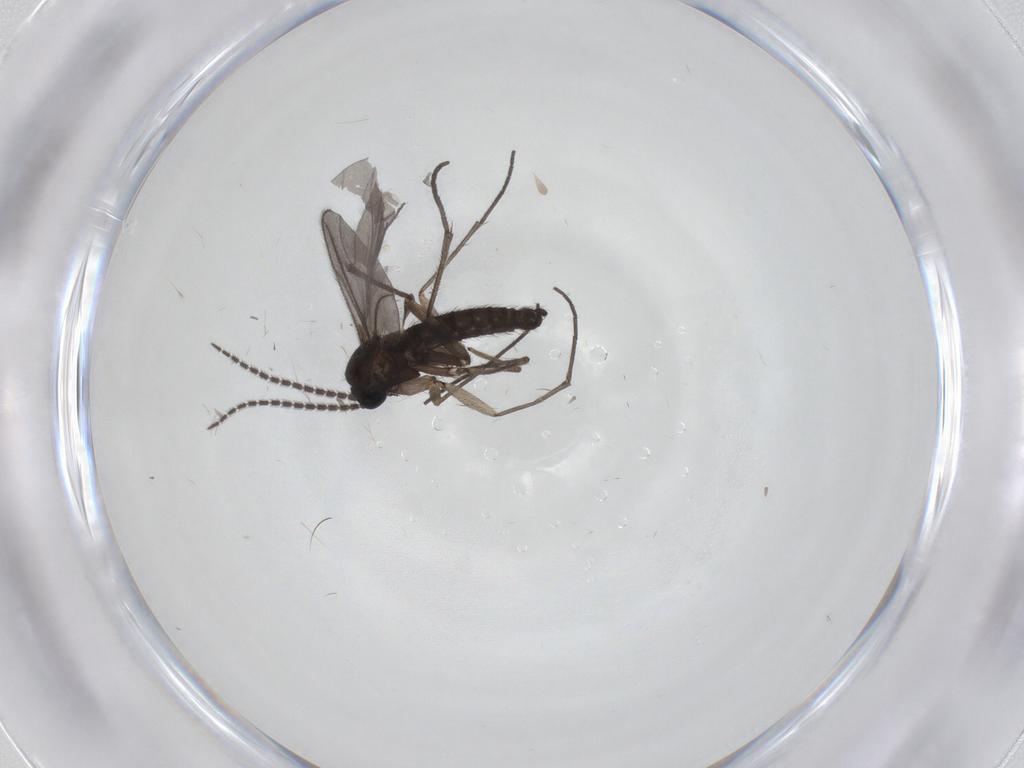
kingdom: Animalia
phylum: Arthropoda
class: Insecta
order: Diptera
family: Sciaridae
